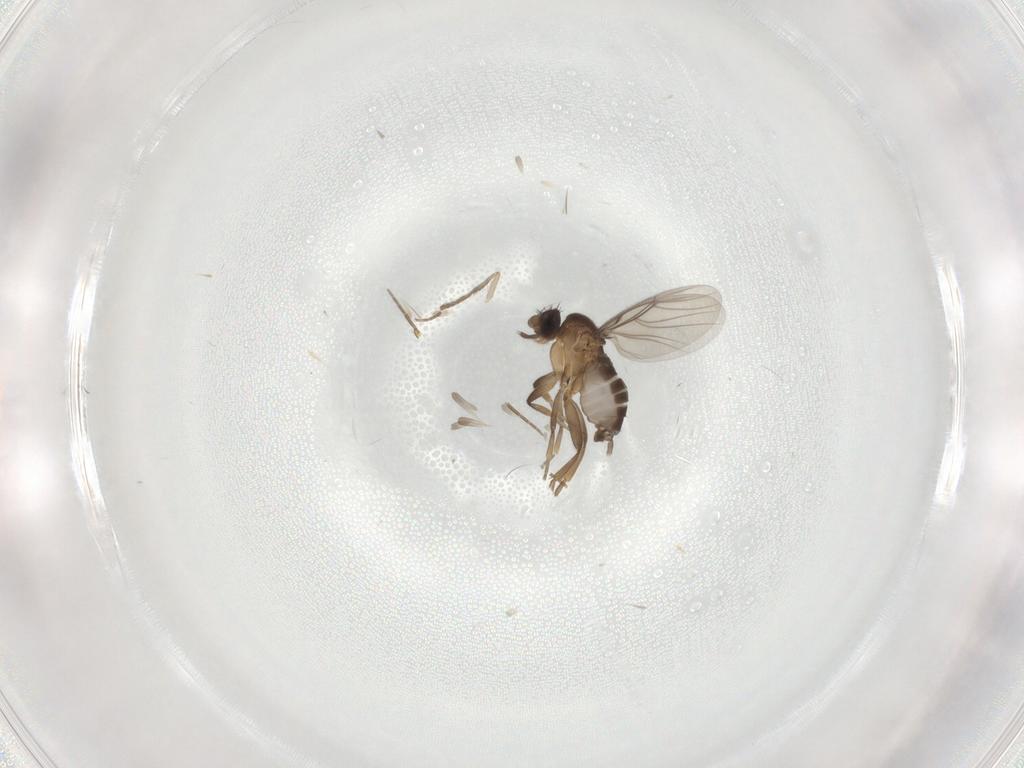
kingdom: Animalia
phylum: Arthropoda
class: Insecta
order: Diptera
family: Psychodidae
